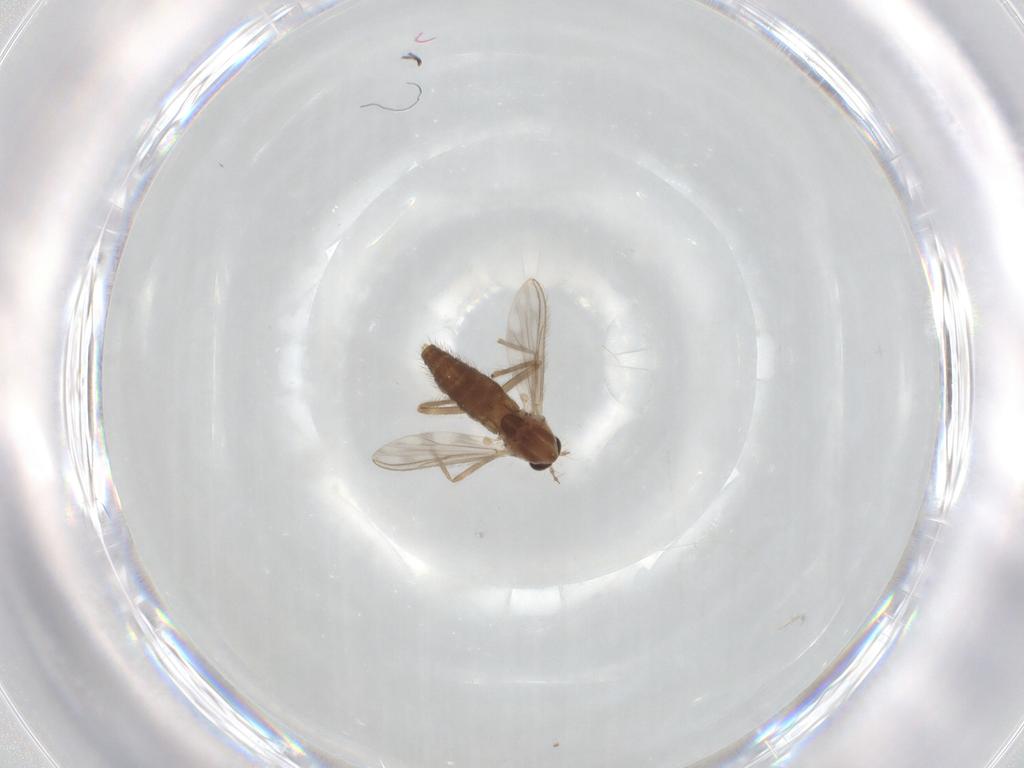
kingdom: Animalia
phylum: Arthropoda
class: Insecta
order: Diptera
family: Chironomidae
